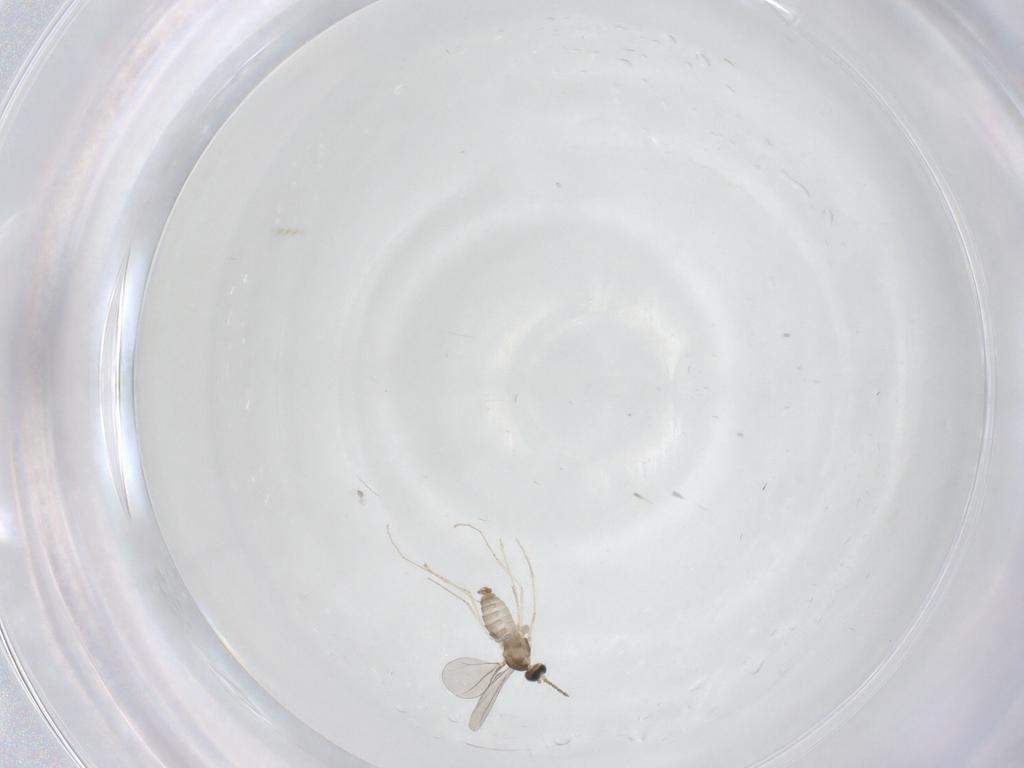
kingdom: Animalia
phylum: Arthropoda
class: Insecta
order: Diptera
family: Cecidomyiidae
